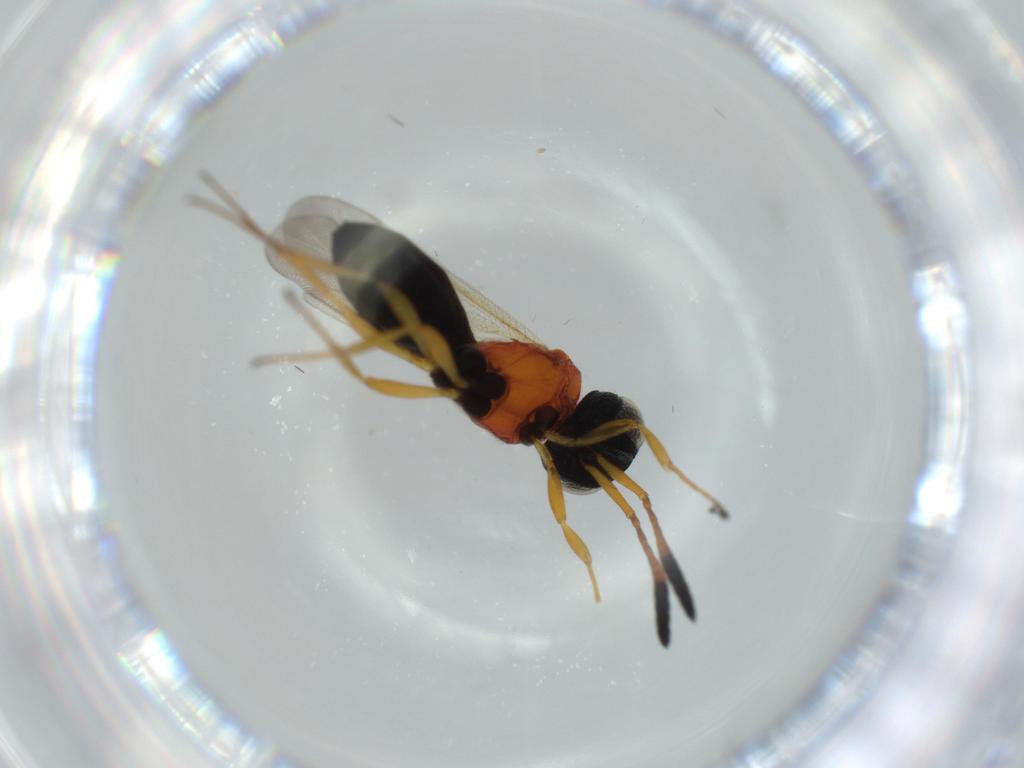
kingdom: Animalia
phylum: Arthropoda
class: Insecta
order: Hymenoptera
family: Scelionidae
